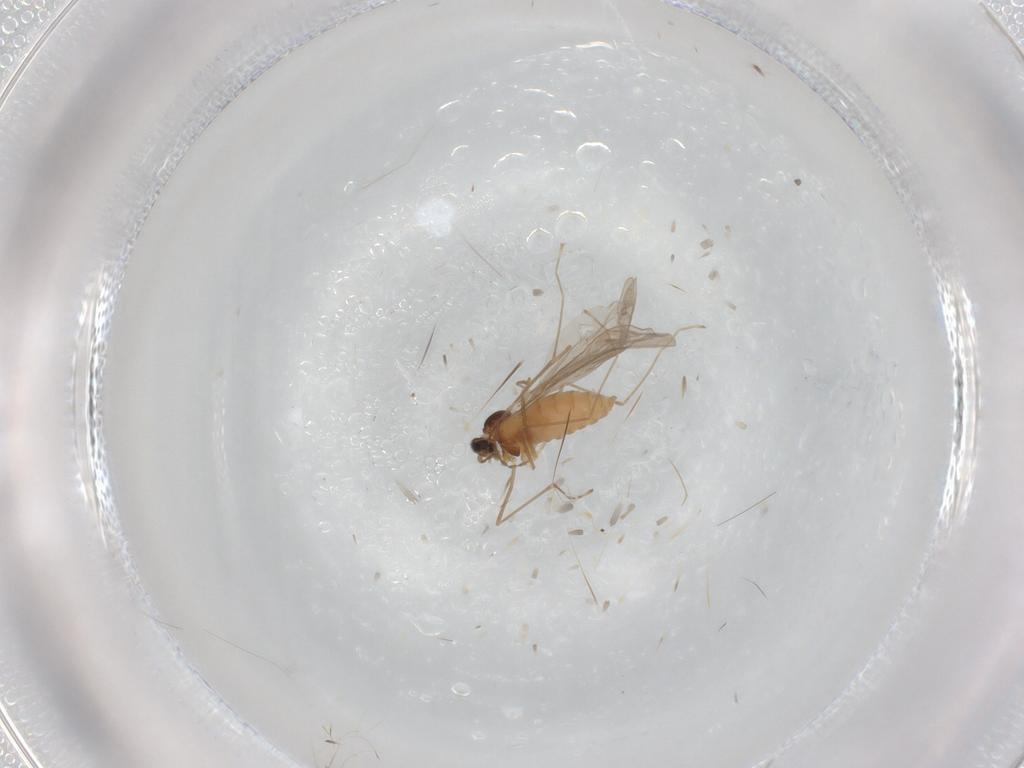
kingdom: Animalia
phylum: Arthropoda
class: Insecta
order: Diptera
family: Cecidomyiidae
